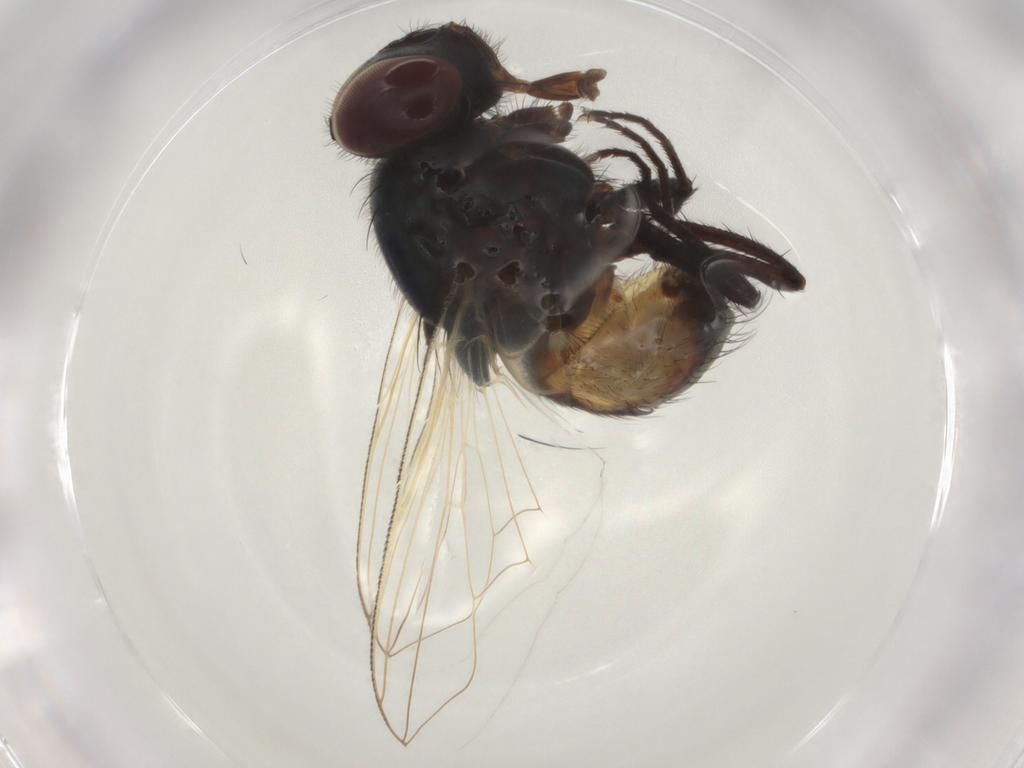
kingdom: Animalia
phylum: Arthropoda
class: Insecta
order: Diptera
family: Muscidae
